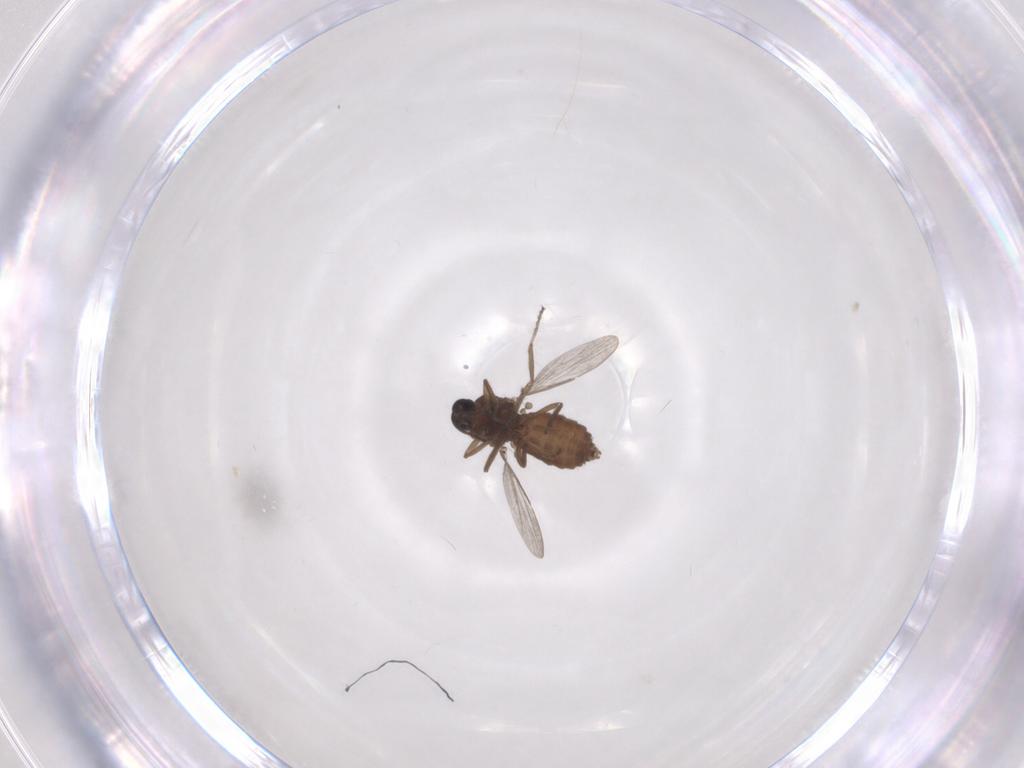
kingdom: Animalia
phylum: Arthropoda
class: Insecta
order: Diptera
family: Ceratopogonidae
